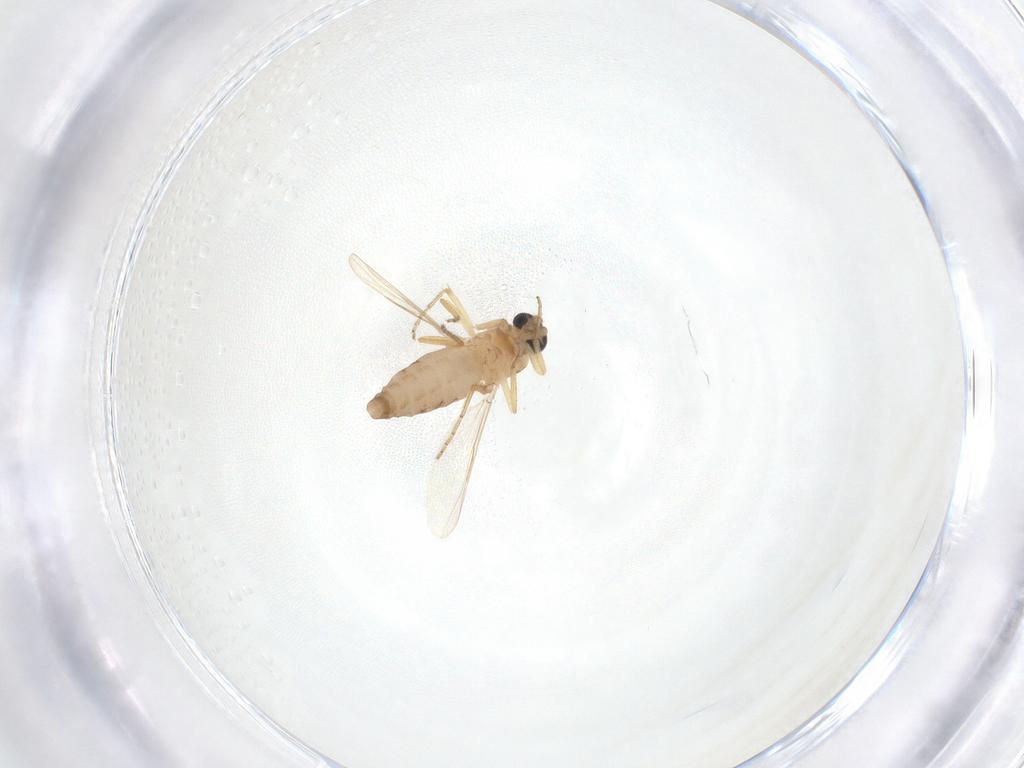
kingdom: Animalia
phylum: Arthropoda
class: Insecta
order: Diptera
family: Ceratopogonidae
